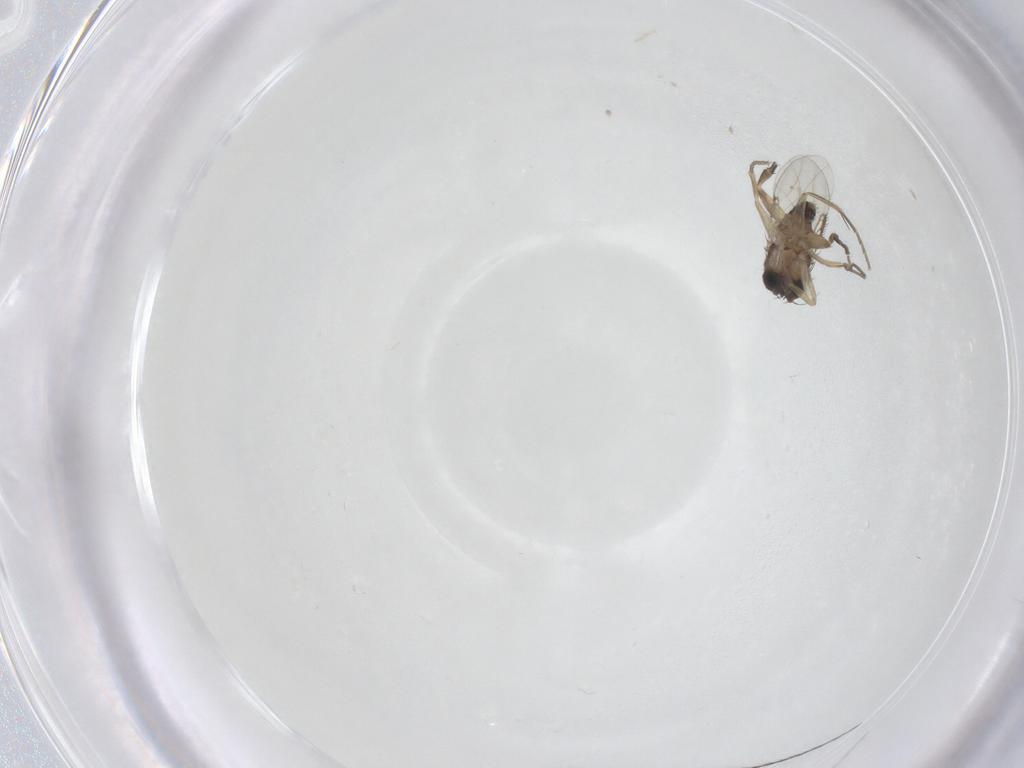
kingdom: Animalia
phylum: Arthropoda
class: Insecta
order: Diptera
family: Phoridae
